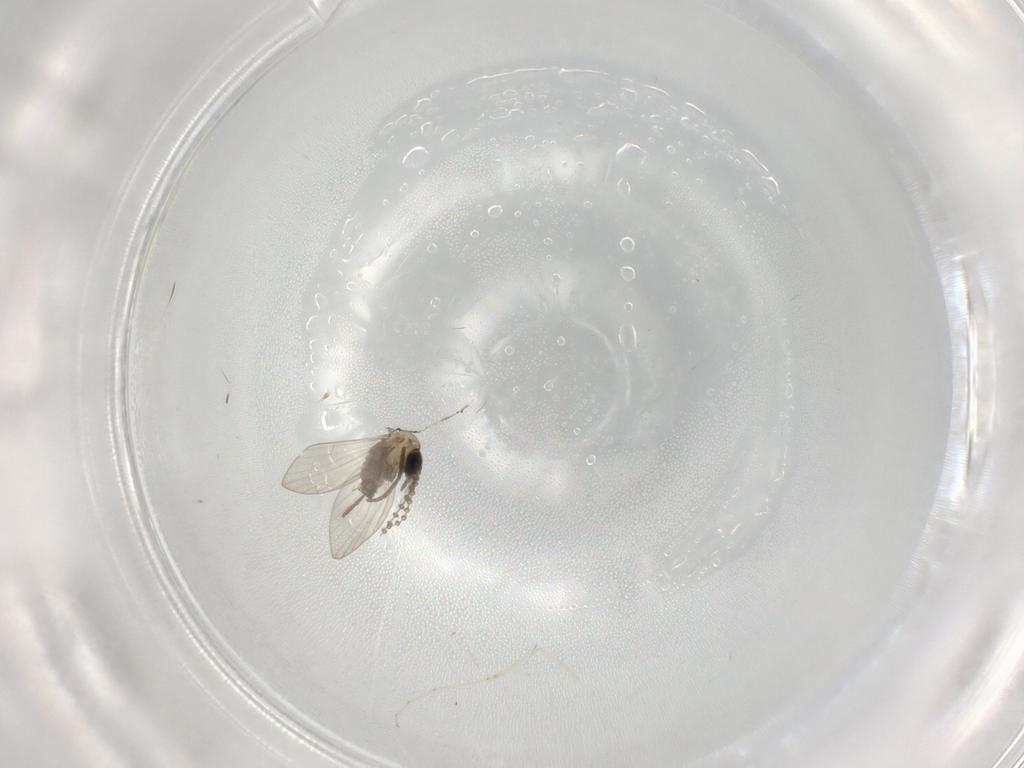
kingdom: Animalia
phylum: Arthropoda
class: Insecta
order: Diptera
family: Psychodidae
